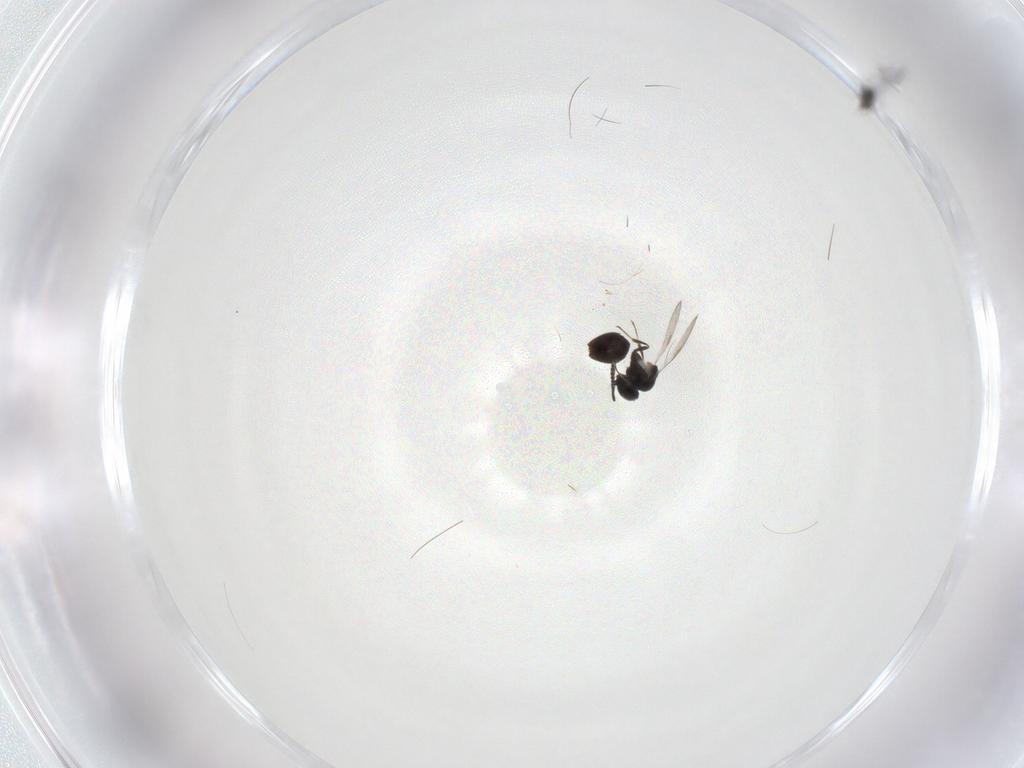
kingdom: Animalia
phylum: Arthropoda
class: Insecta
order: Hymenoptera
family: Scelionidae
